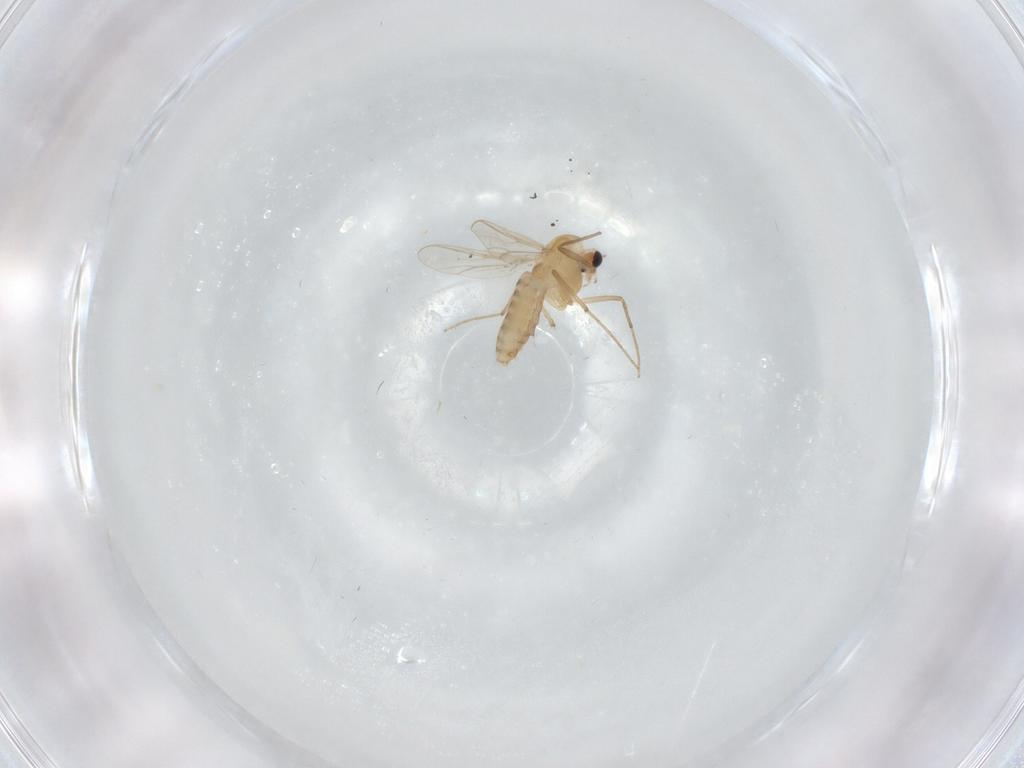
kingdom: Animalia
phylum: Arthropoda
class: Insecta
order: Diptera
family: Chironomidae
